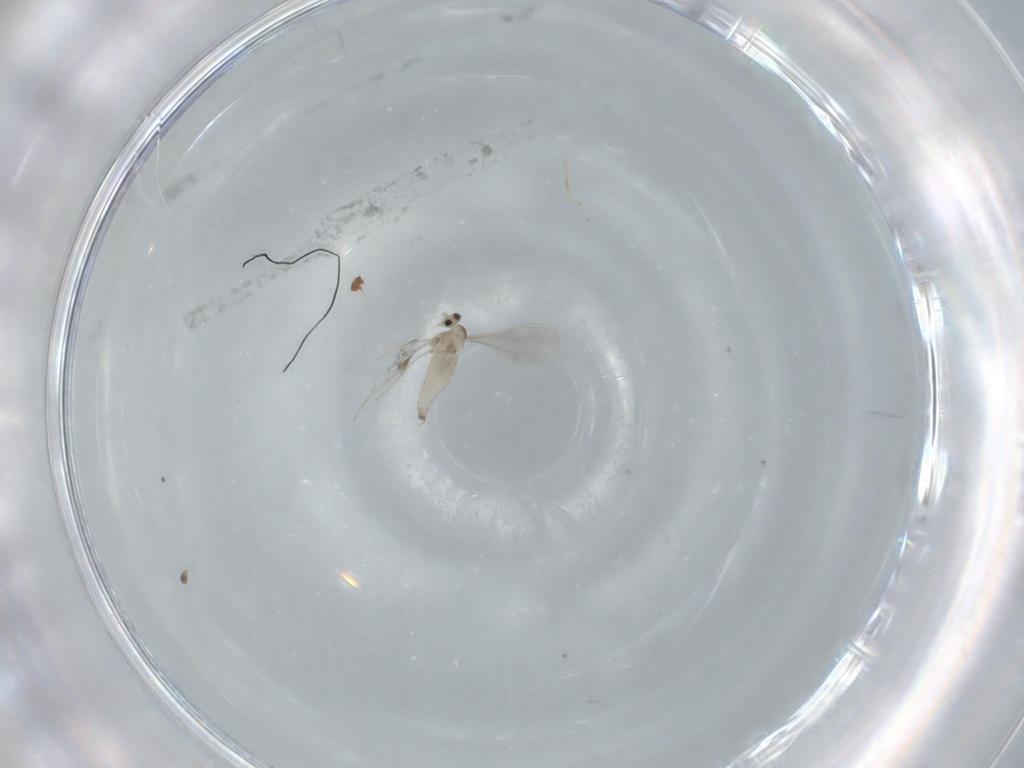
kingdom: Animalia
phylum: Arthropoda
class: Insecta
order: Diptera
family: Cecidomyiidae
